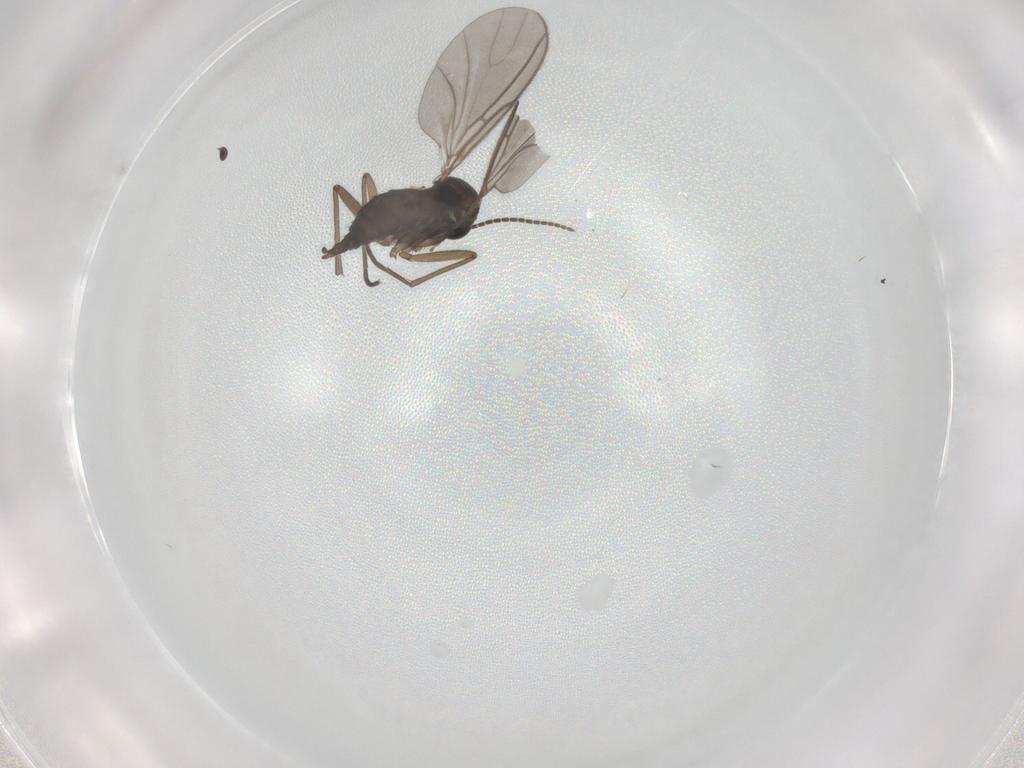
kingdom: Animalia
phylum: Arthropoda
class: Insecta
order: Diptera
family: Sciaridae
